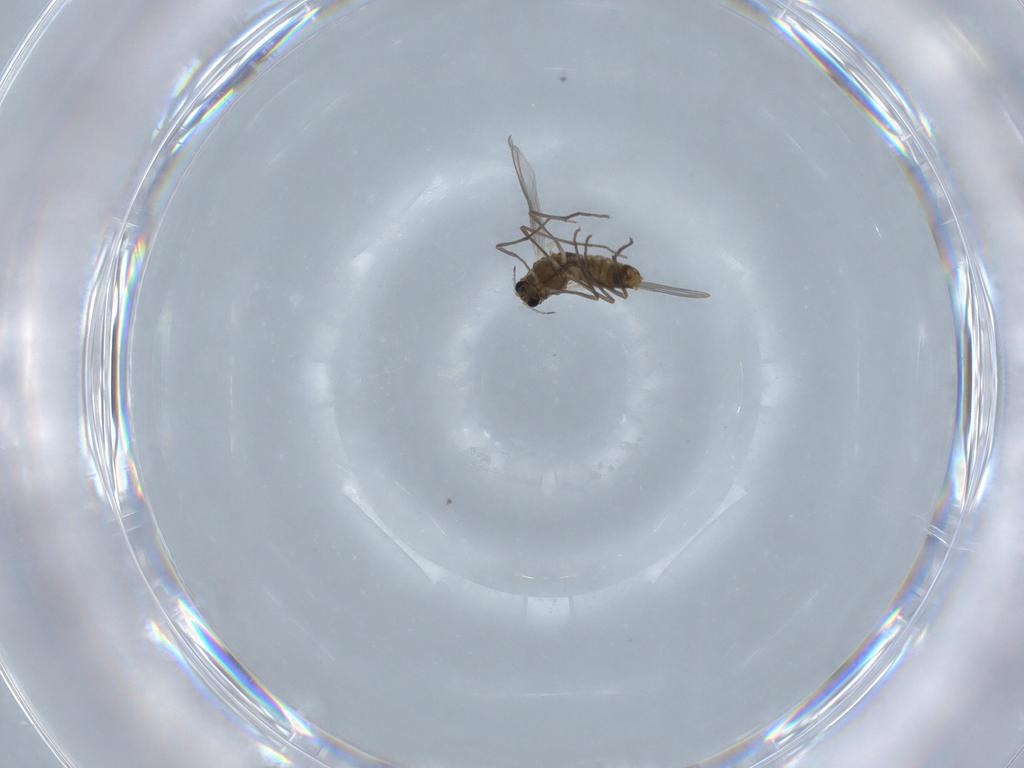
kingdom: Animalia
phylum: Arthropoda
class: Insecta
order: Diptera
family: Chironomidae
